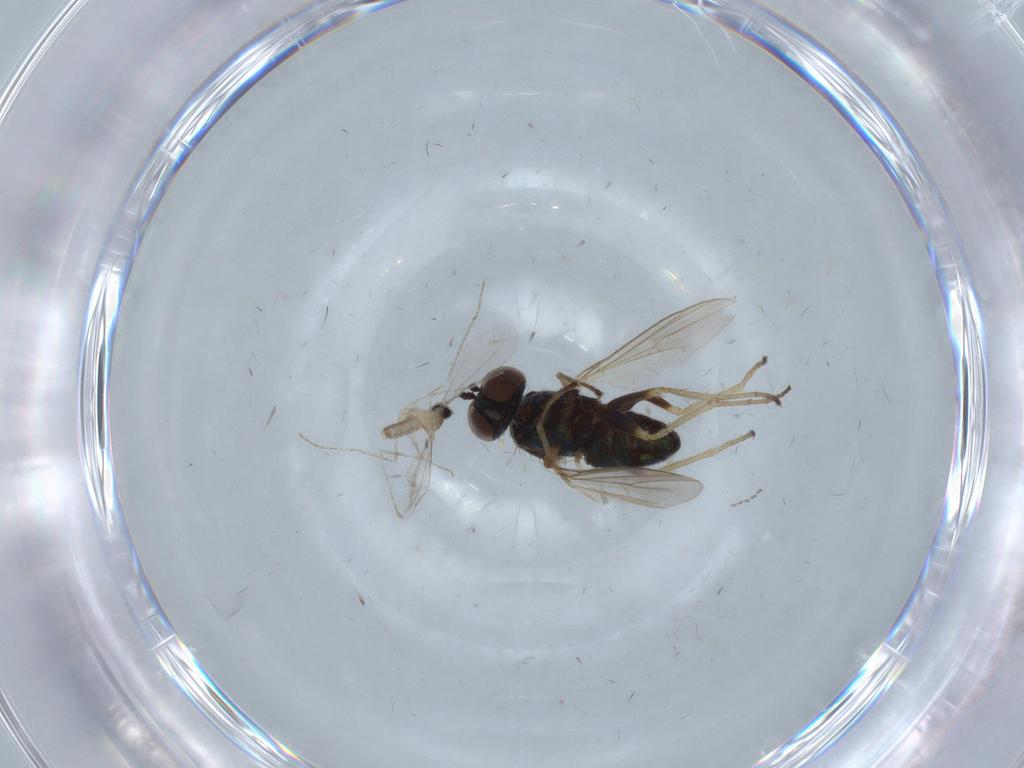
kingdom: Animalia
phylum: Arthropoda
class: Insecta
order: Diptera
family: Dolichopodidae
